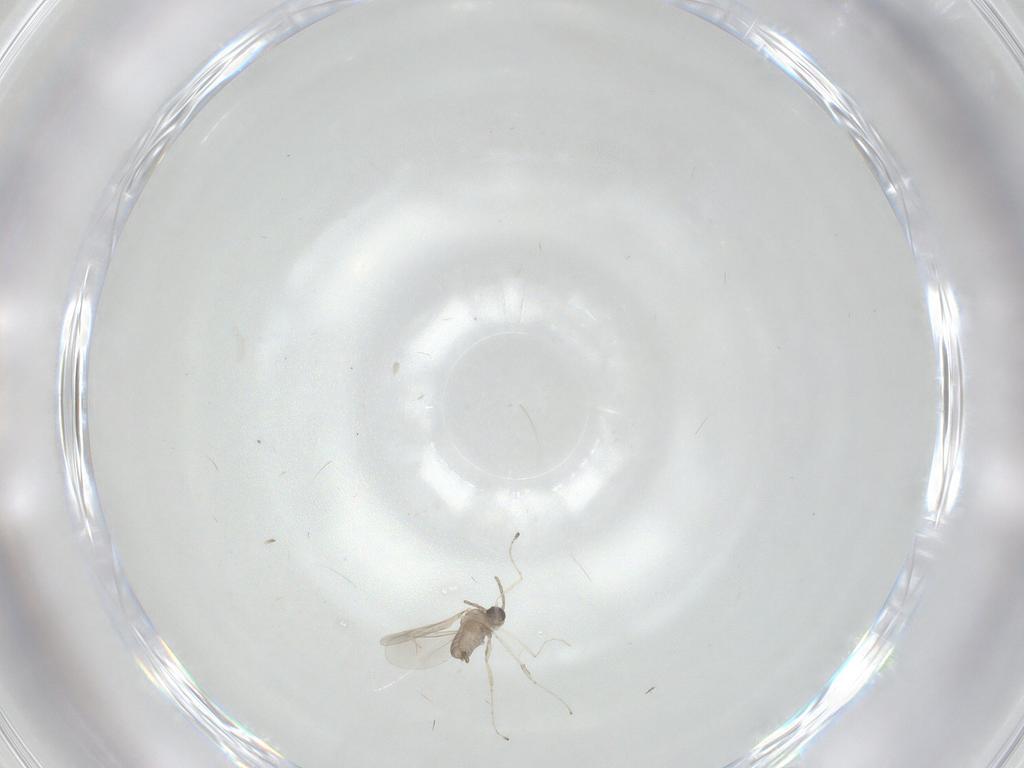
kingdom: Animalia
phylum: Arthropoda
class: Insecta
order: Diptera
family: Cecidomyiidae
